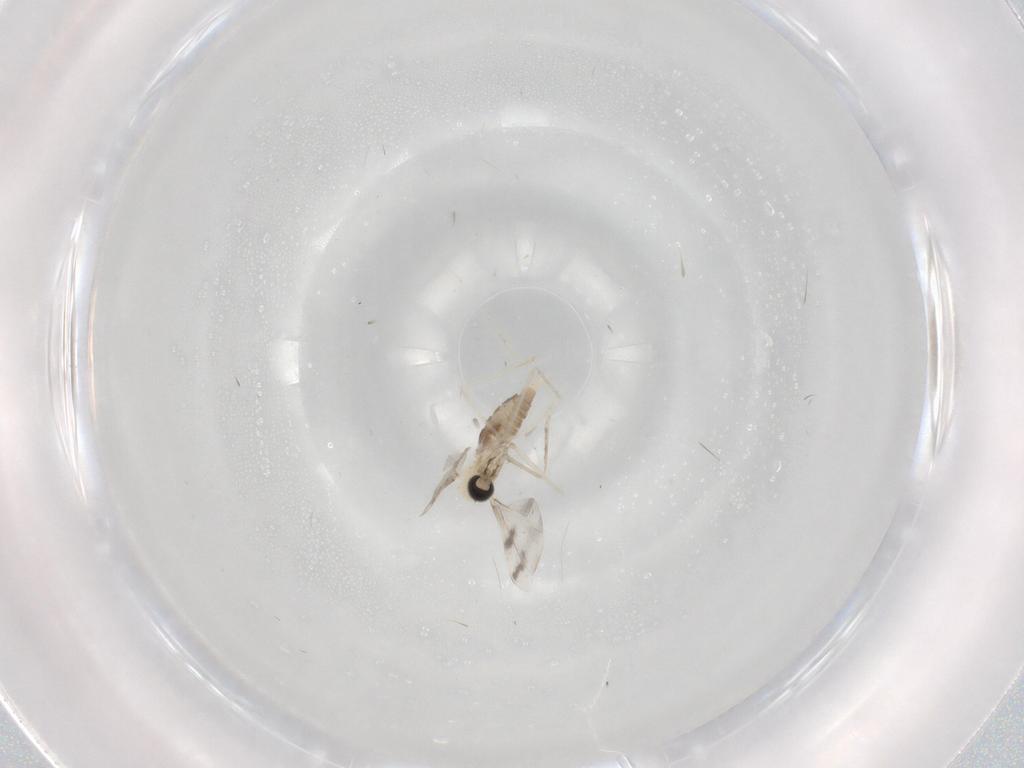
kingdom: Animalia
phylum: Arthropoda
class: Insecta
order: Diptera
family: Cecidomyiidae
